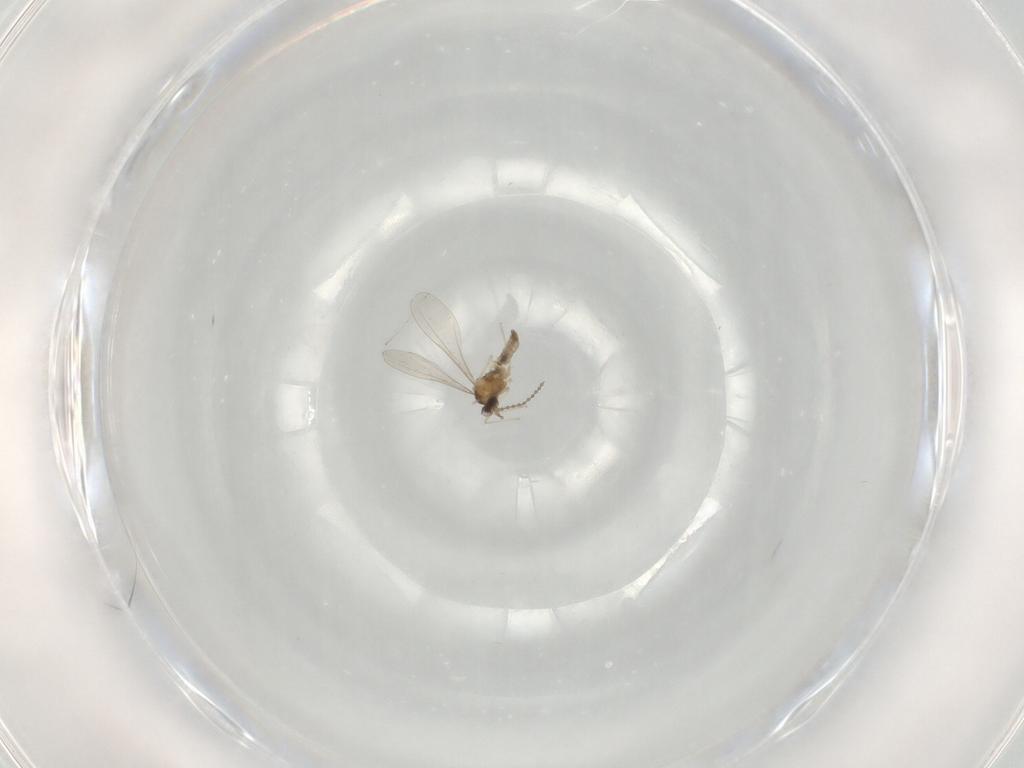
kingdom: Animalia
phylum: Arthropoda
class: Insecta
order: Diptera
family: Cecidomyiidae
